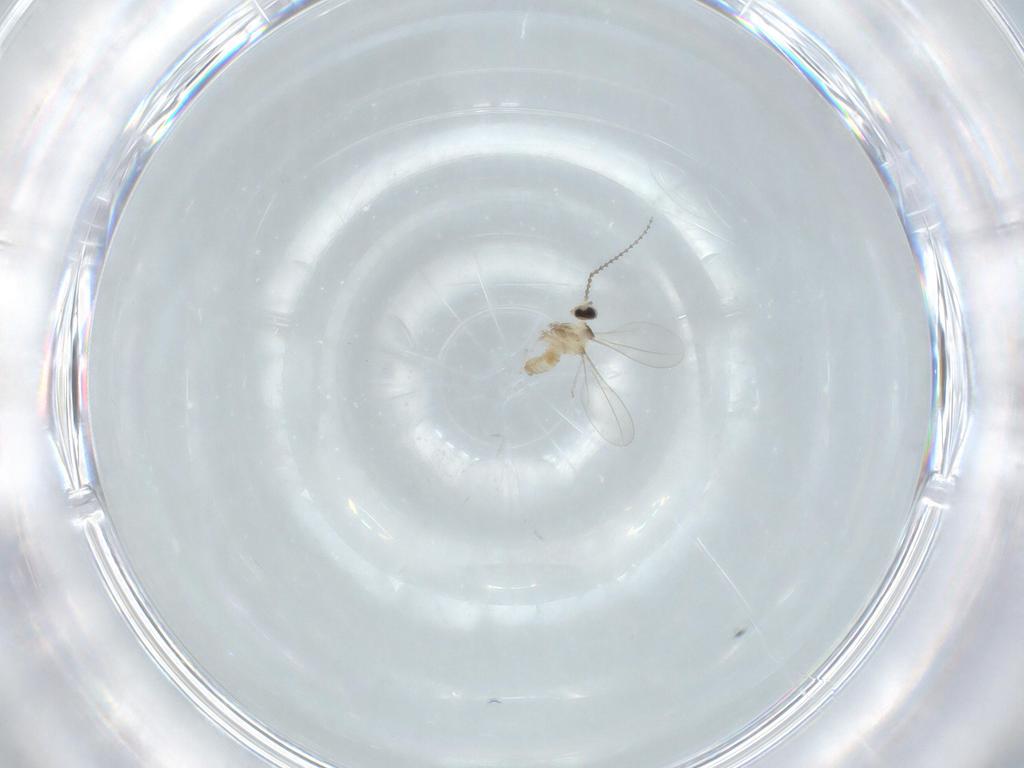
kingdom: Animalia
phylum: Arthropoda
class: Insecta
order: Diptera
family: Cecidomyiidae
